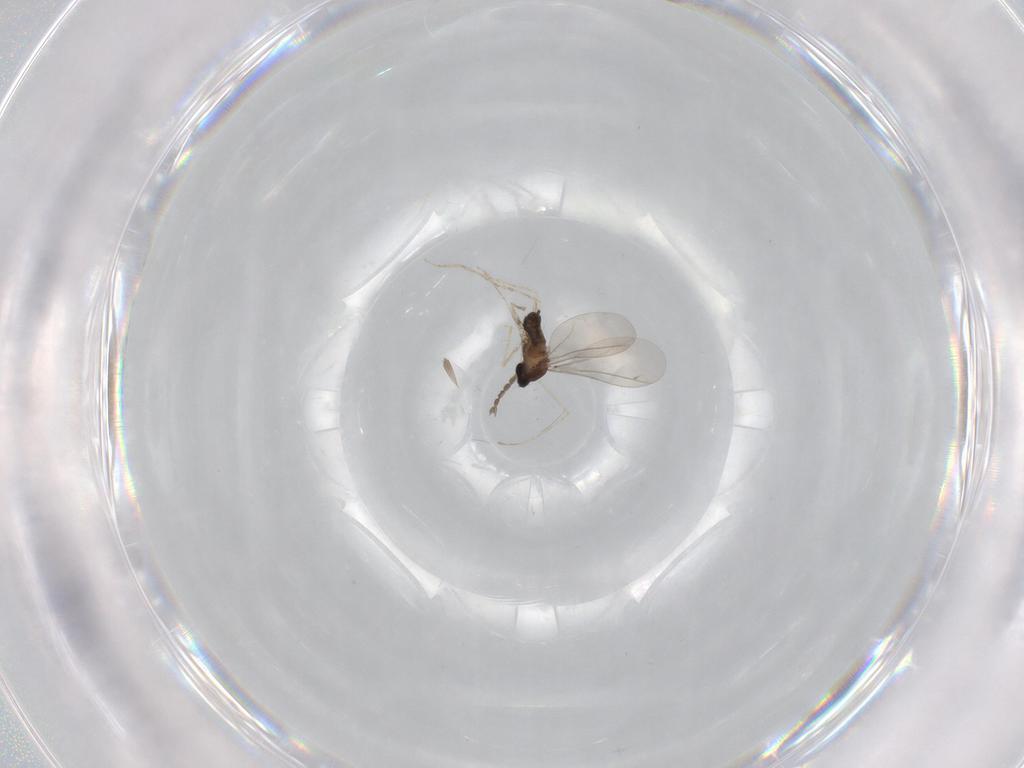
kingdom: Animalia
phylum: Arthropoda
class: Insecta
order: Diptera
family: Cecidomyiidae
